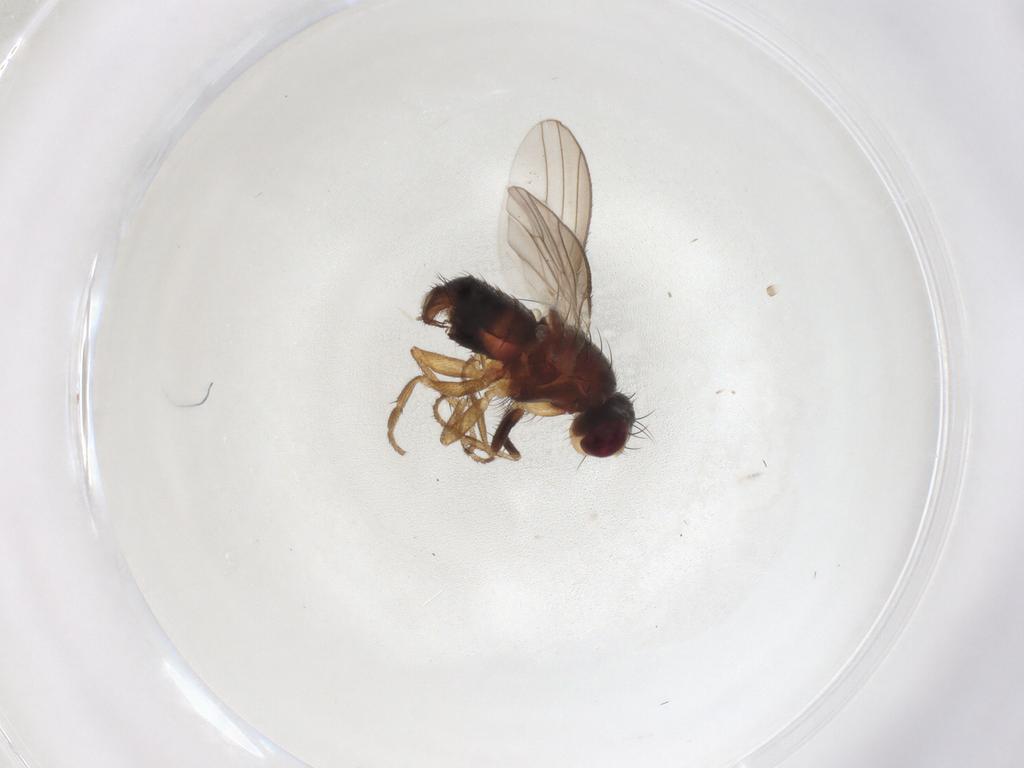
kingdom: Animalia
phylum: Arthropoda
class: Insecta
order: Diptera
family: Heleomyzidae
